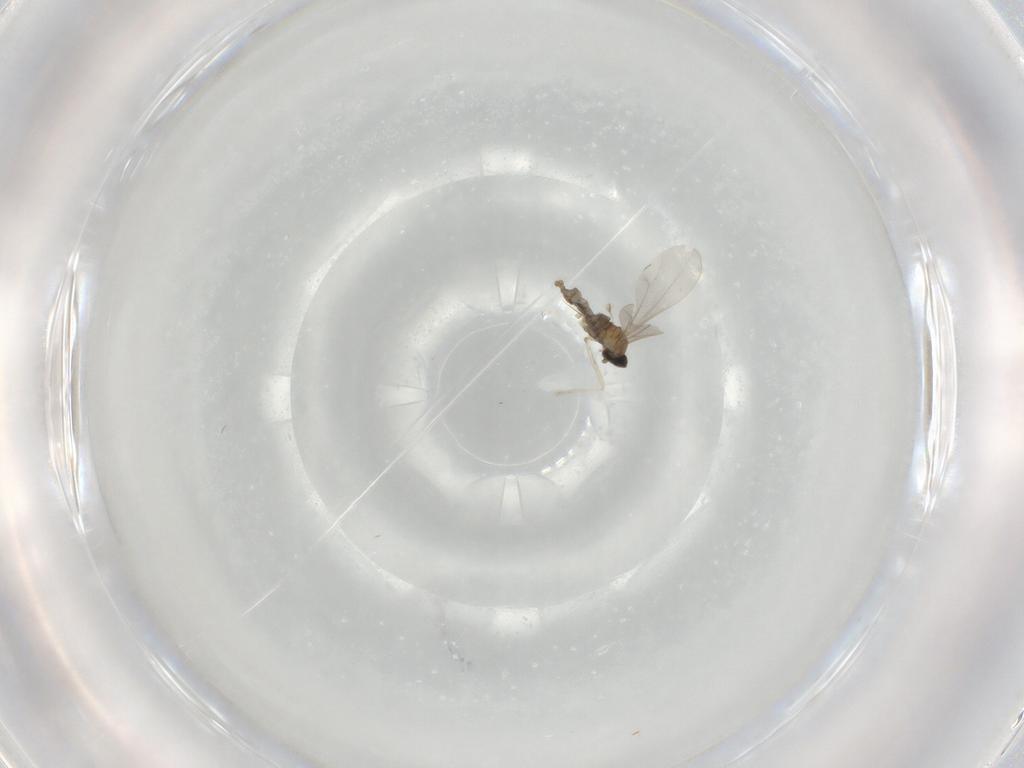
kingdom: Animalia
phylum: Arthropoda
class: Insecta
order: Diptera
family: Cecidomyiidae
